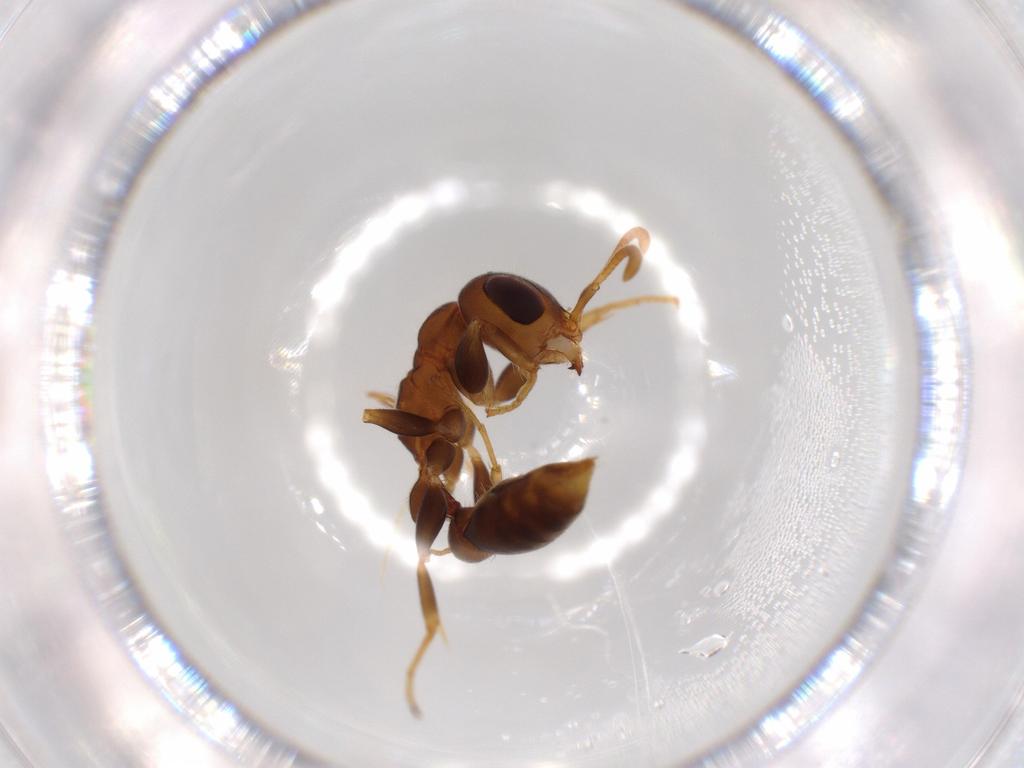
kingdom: Animalia
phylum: Arthropoda
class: Insecta
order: Hymenoptera
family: Formicidae
